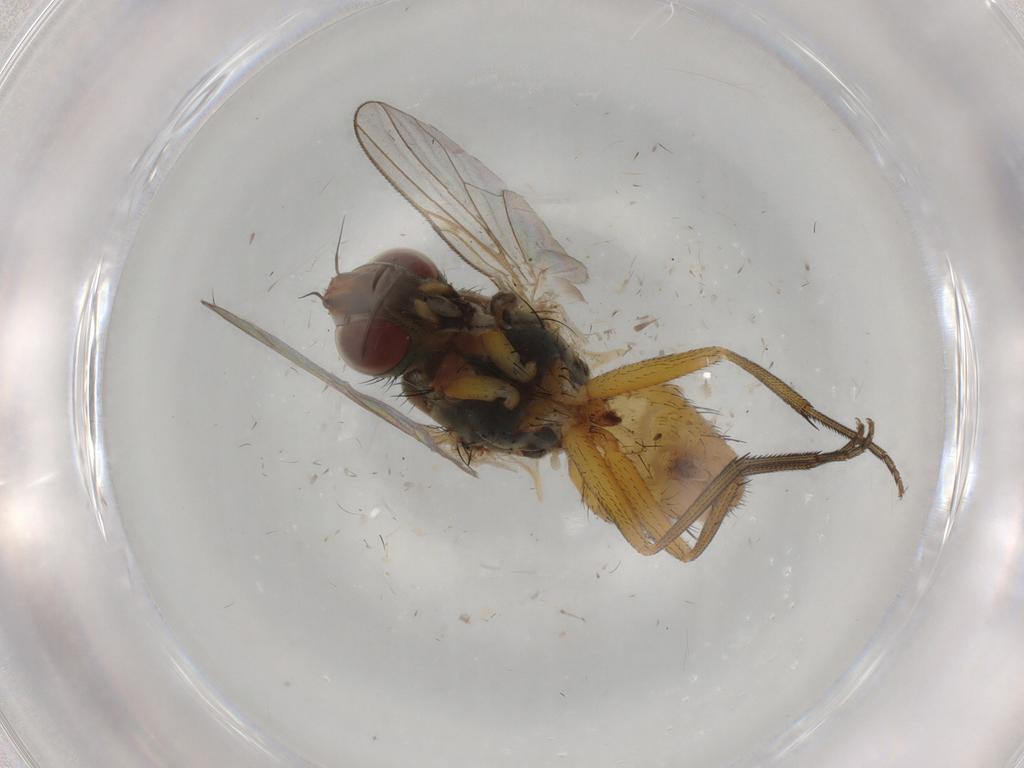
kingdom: Animalia
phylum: Arthropoda
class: Insecta
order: Diptera
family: Muscidae
